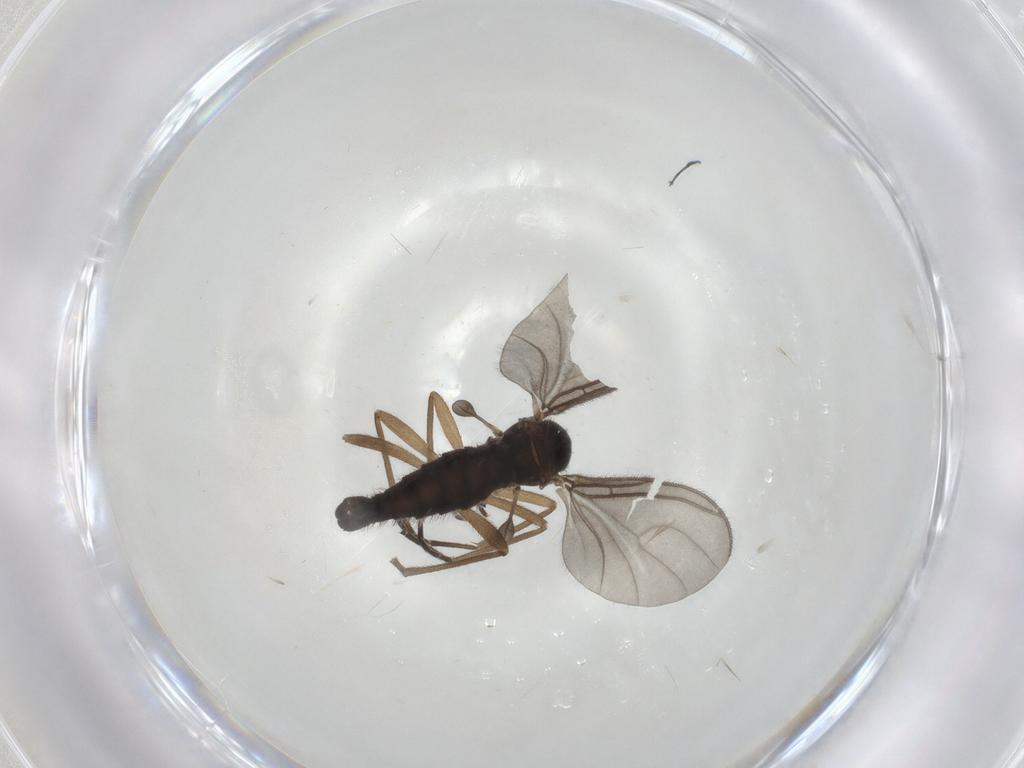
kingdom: Animalia
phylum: Arthropoda
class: Insecta
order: Diptera
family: Sciaridae
